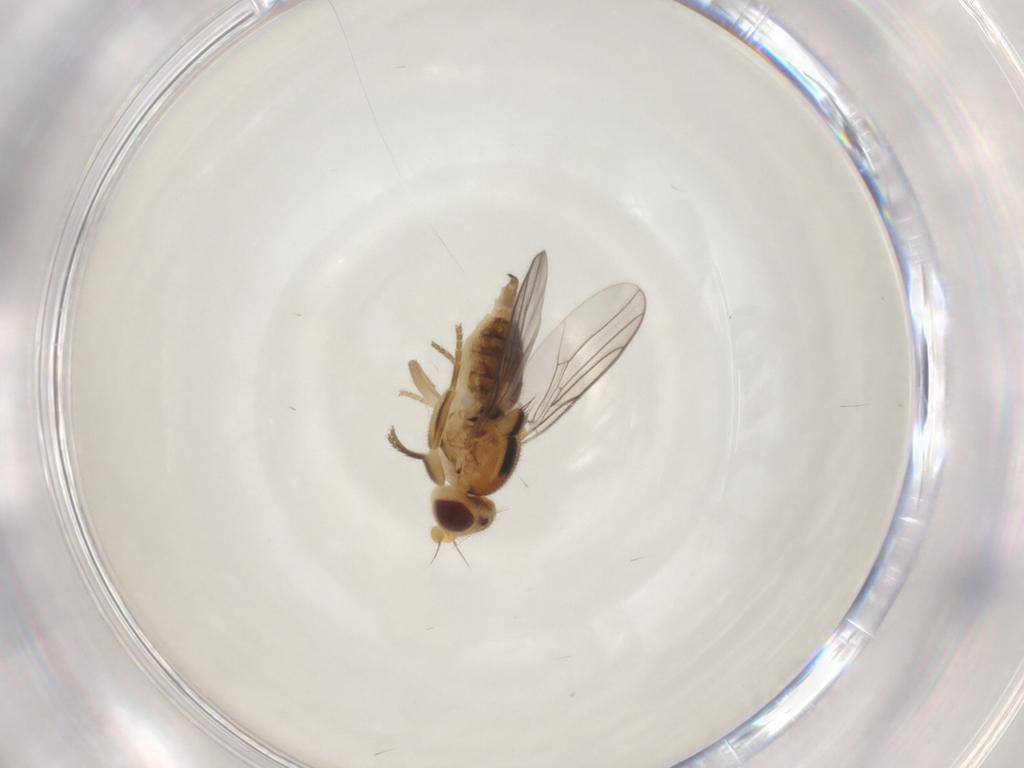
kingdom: Animalia
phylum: Arthropoda
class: Insecta
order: Diptera
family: Chloropidae
